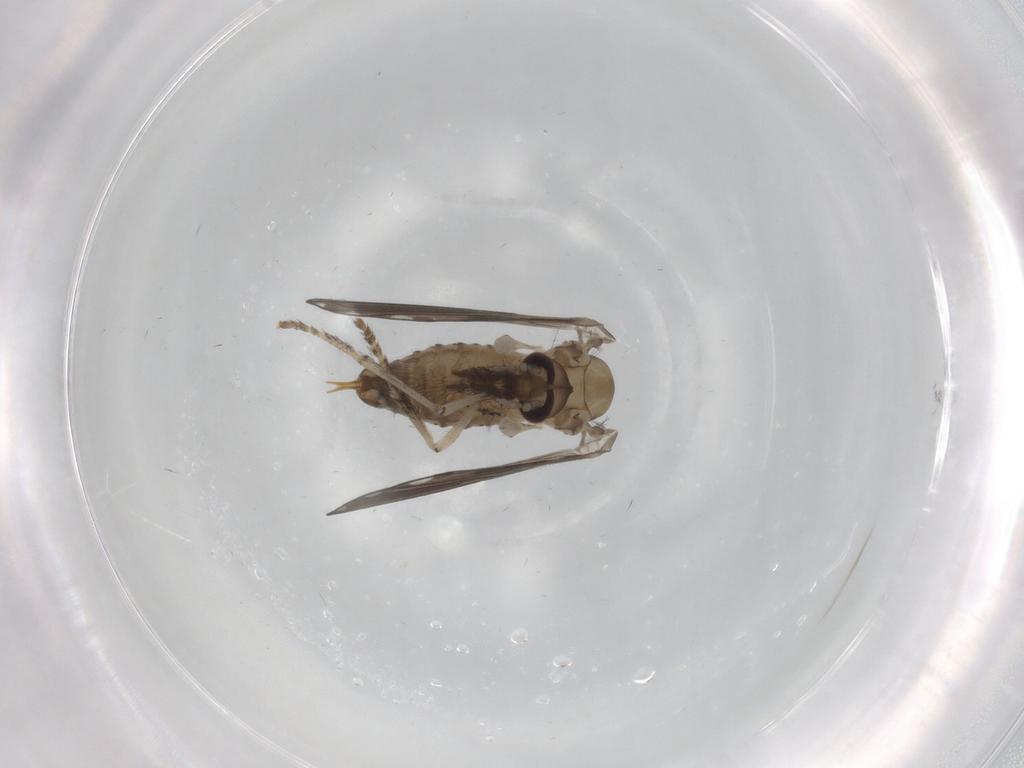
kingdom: Animalia
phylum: Arthropoda
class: Insecta
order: Diptera
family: Psychodidae
